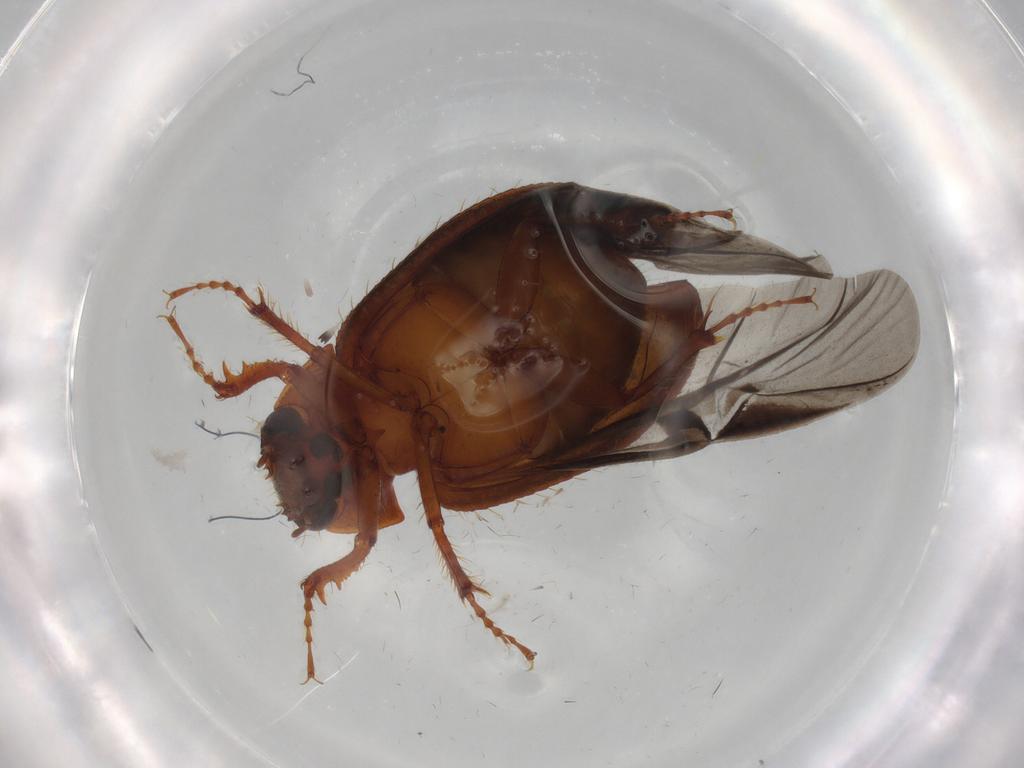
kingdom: Animalia
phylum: Arthropoda
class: Insecta
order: Coleoptera
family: Hybosoridae
